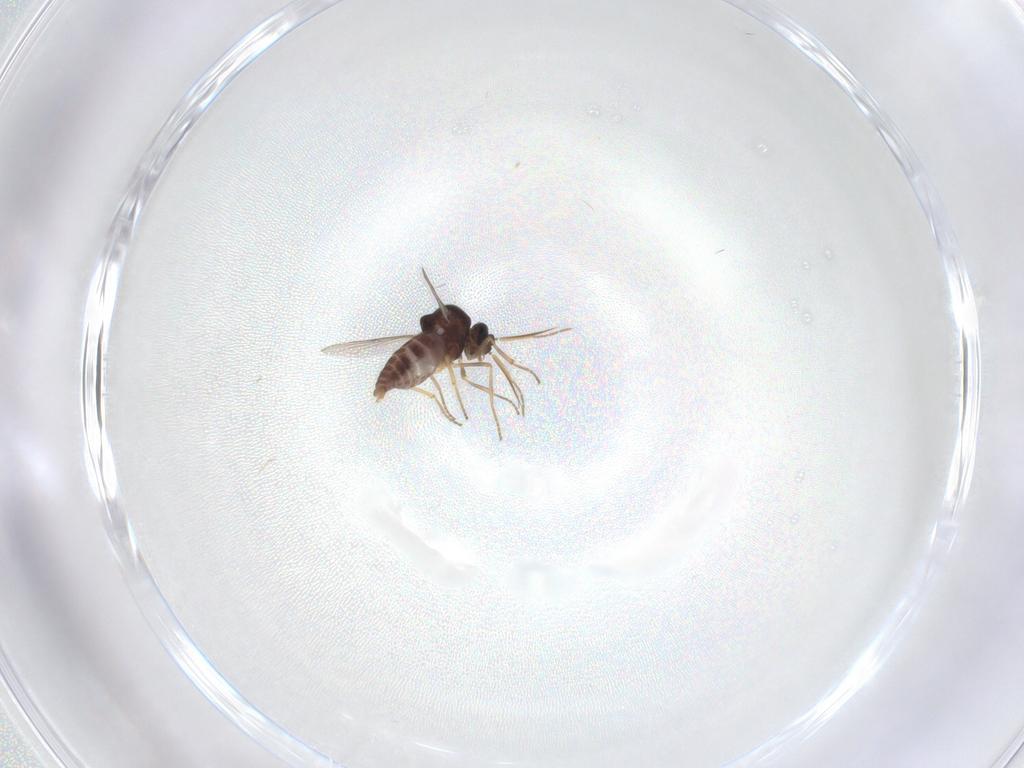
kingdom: Animalia
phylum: Arthropoda
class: Insecta
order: Diptera
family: Ceratopogonidae
